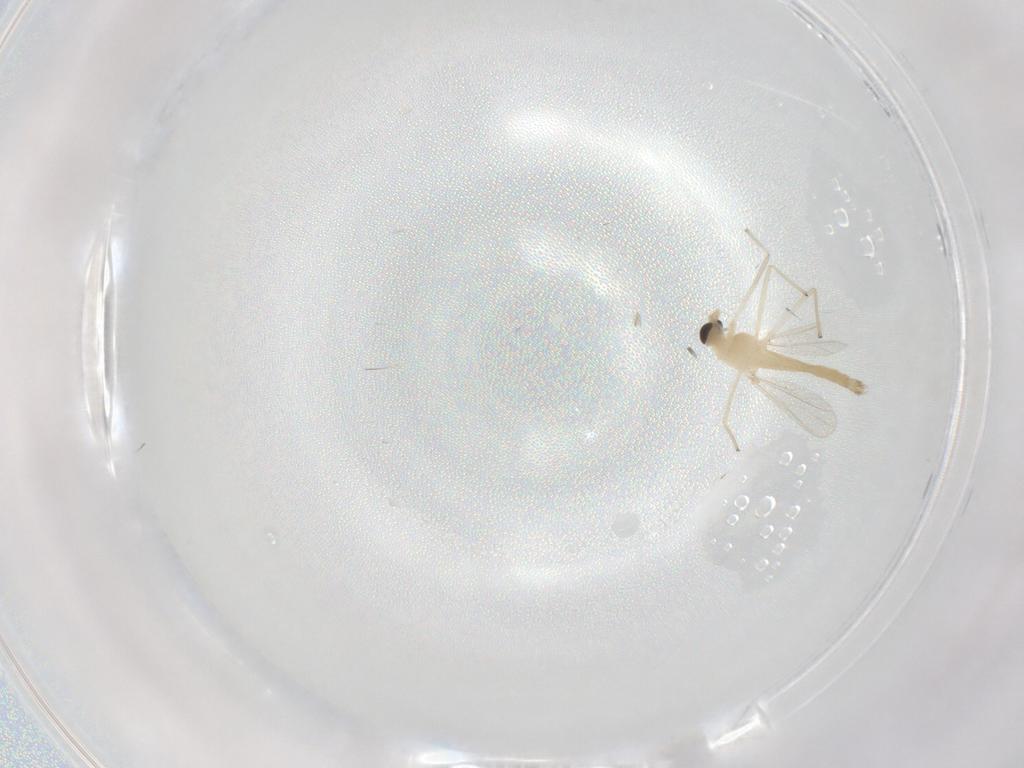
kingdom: Animalia
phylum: Arthropoda
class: Insecta
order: Diptera
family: Chironomidae
